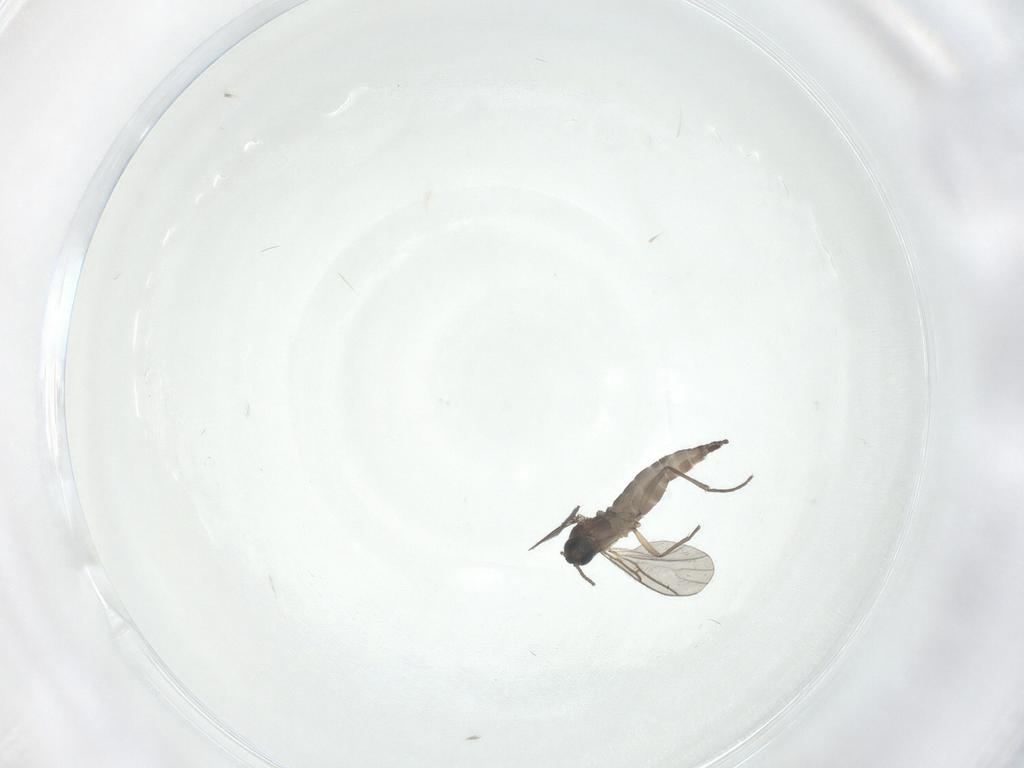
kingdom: Animalia
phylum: Arthropoda
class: Insecta
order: Diptera
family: Sciaridae
